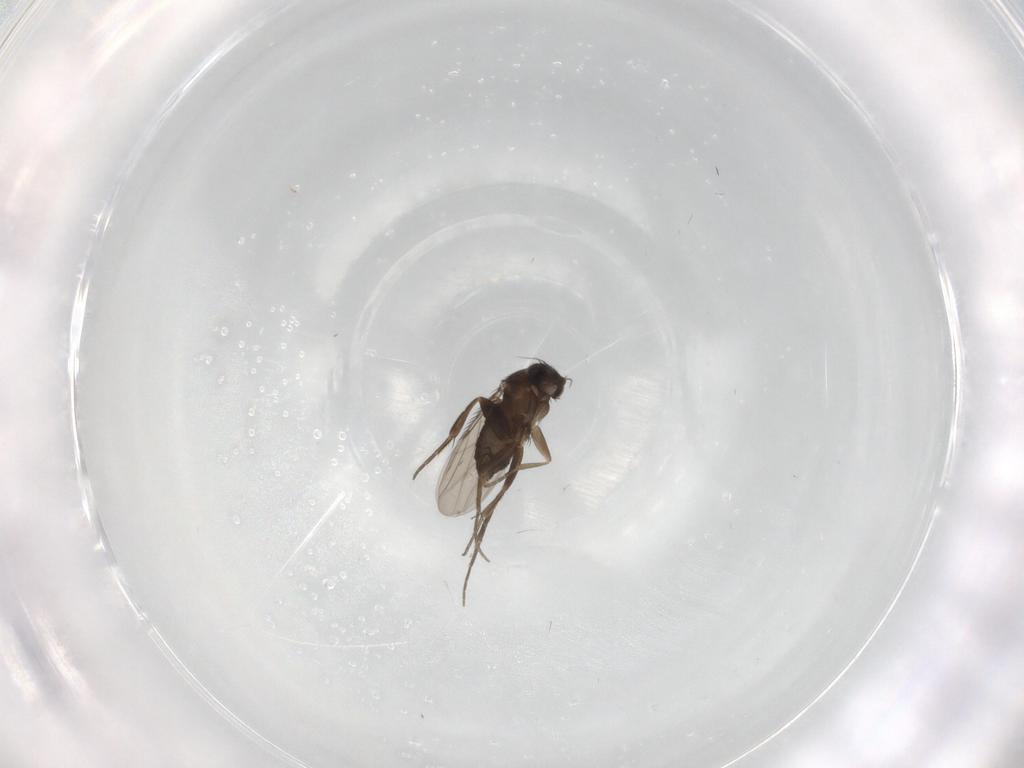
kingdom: Animalia
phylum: Arthropoda
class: Insecta
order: Diptera
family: Phoridae
